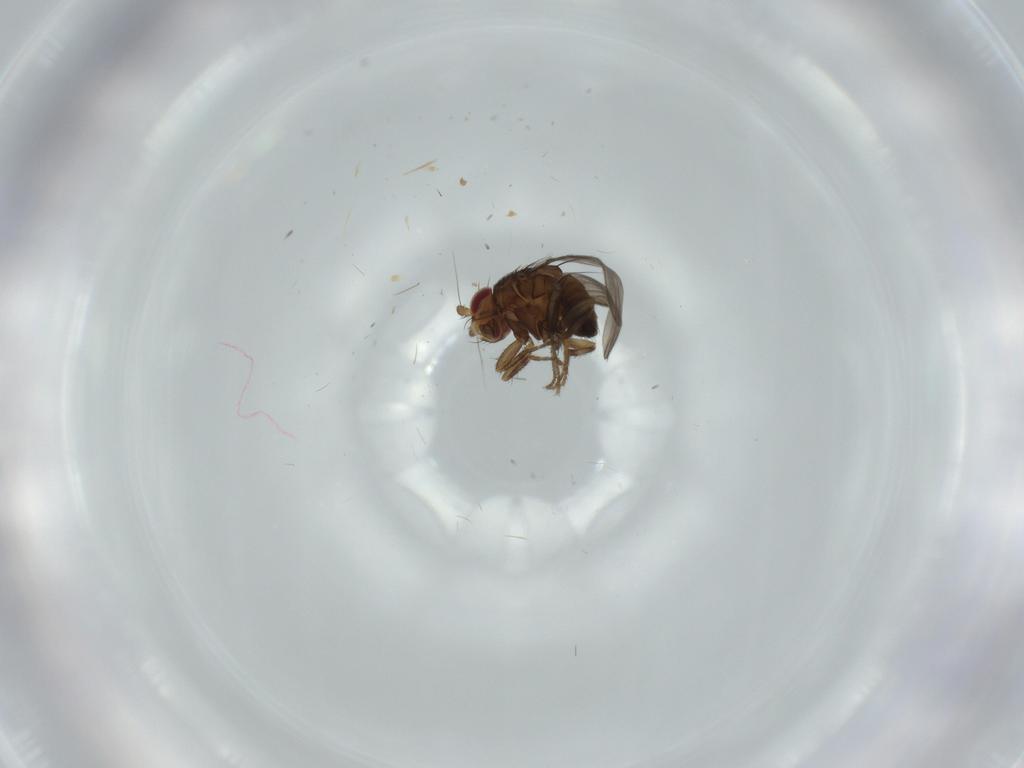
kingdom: Animalia
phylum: Arthropoda
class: Insecta
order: Diptera
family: Cecidomyiidae
